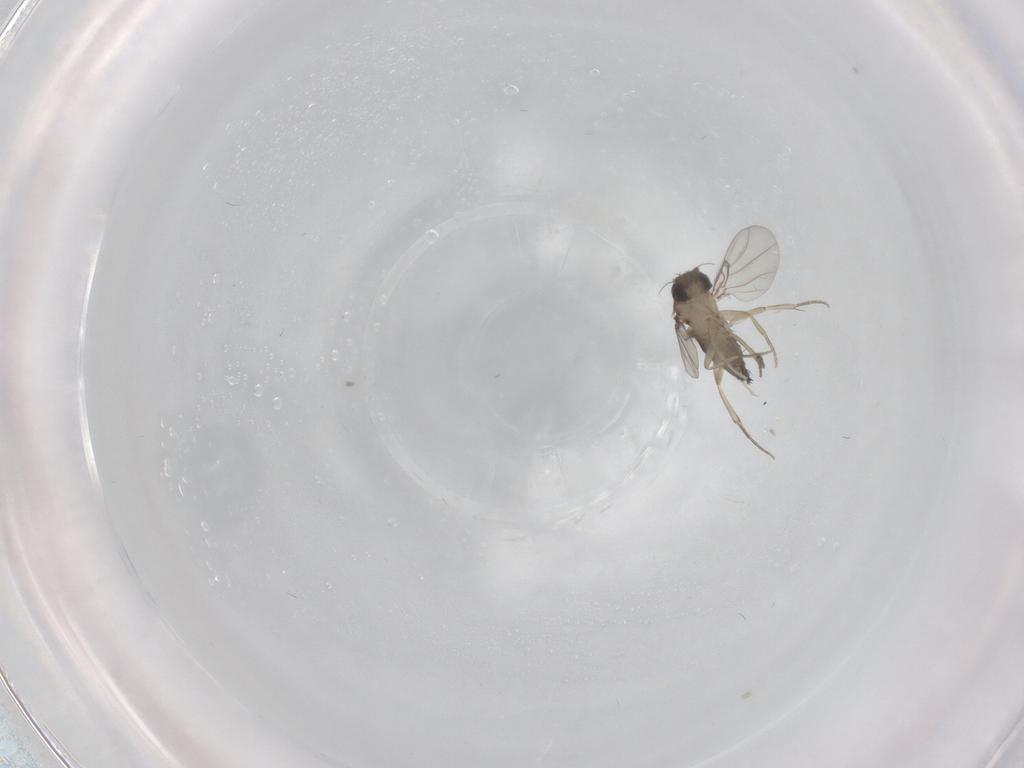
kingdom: Animalia
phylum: Arthropoda
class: Insecta
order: Diptera
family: Phoridae
